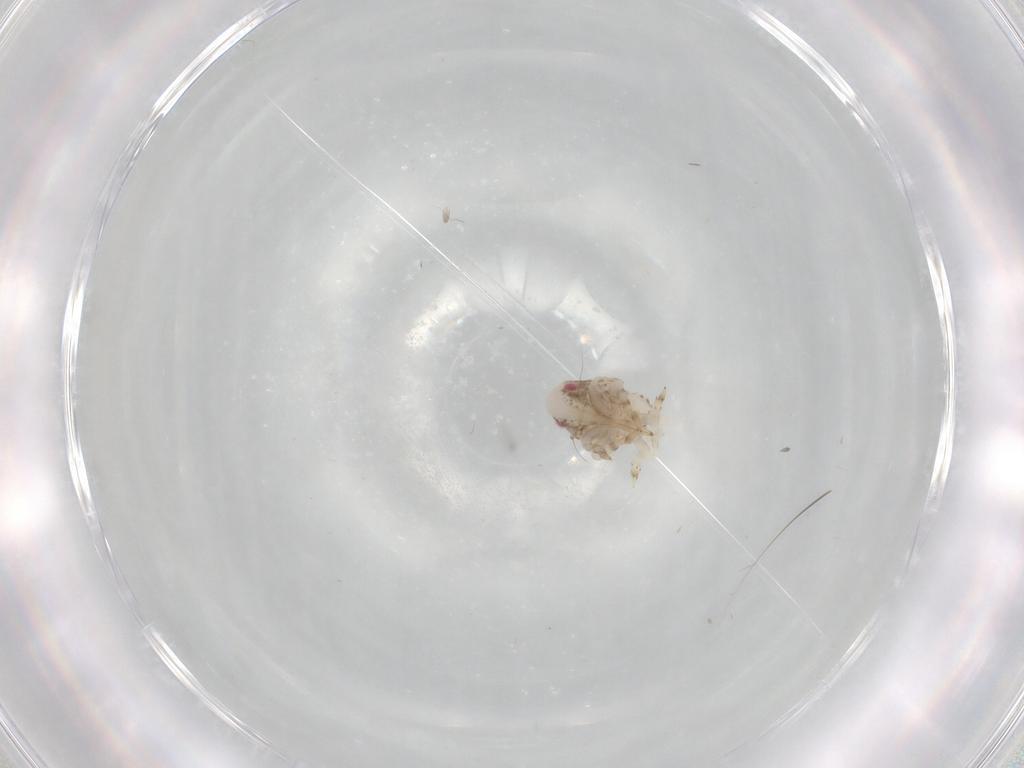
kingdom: Animalia
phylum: Arthropoda
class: Insecta
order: Hemiptera
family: Acanaloniidae
